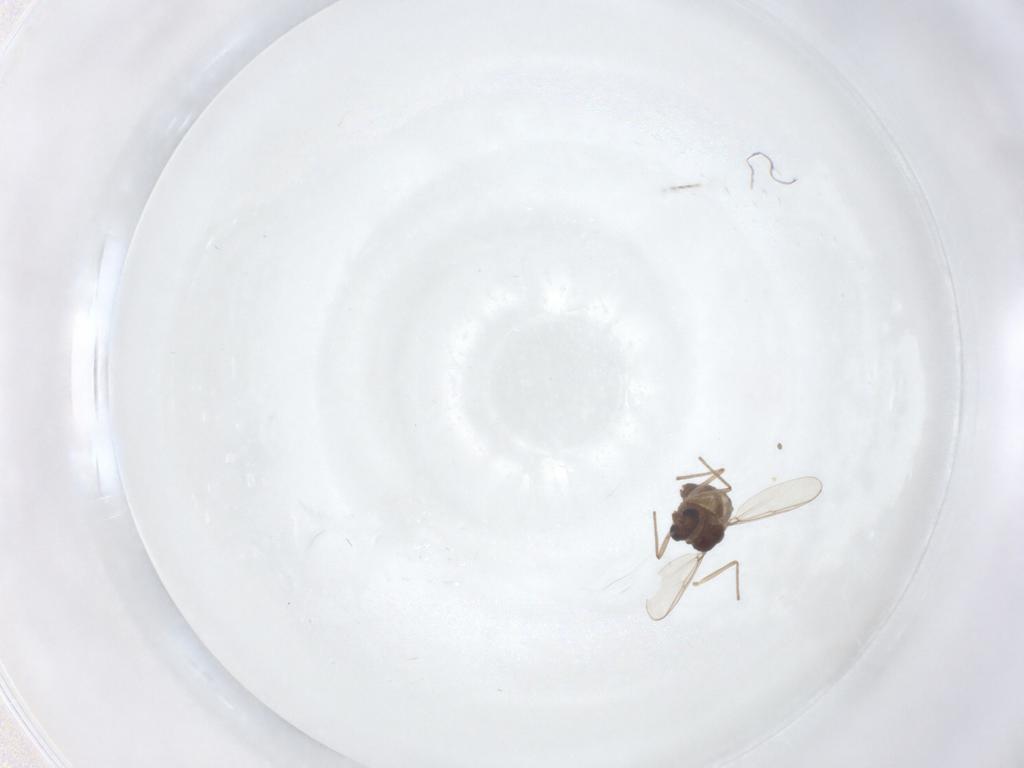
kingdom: Animalia
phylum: Arthropoda
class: Insecta
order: Diptera
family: Chironomidae
